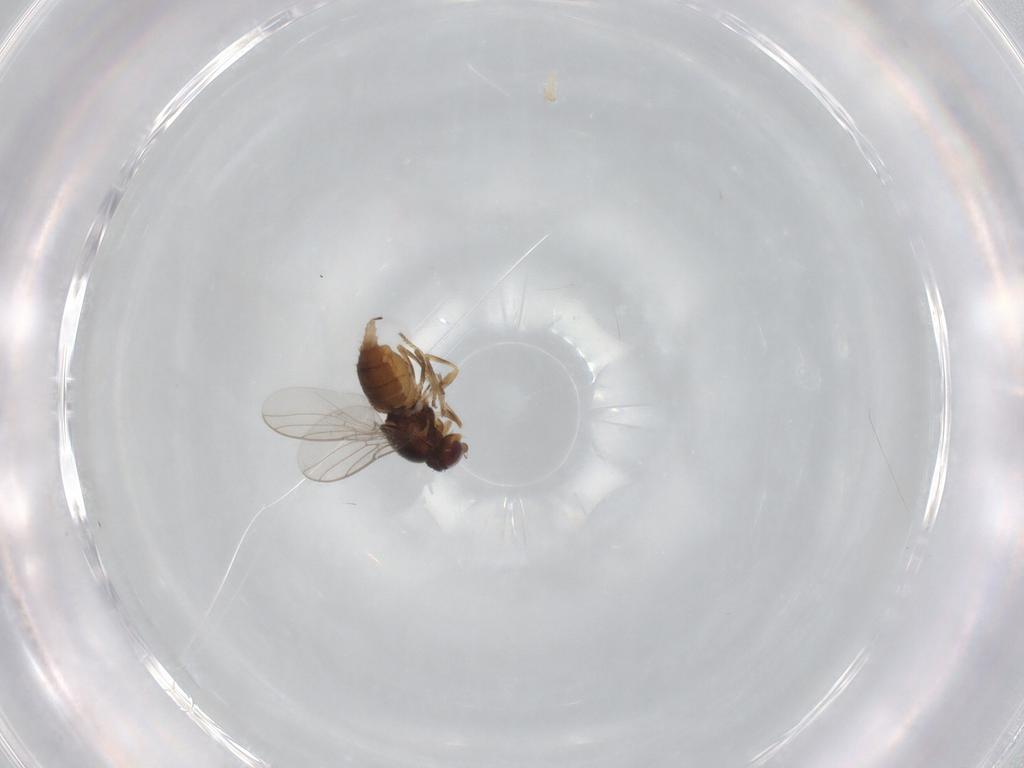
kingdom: Animalia
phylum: Arthropoda
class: Insecta
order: Diptera
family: Chloropidae
